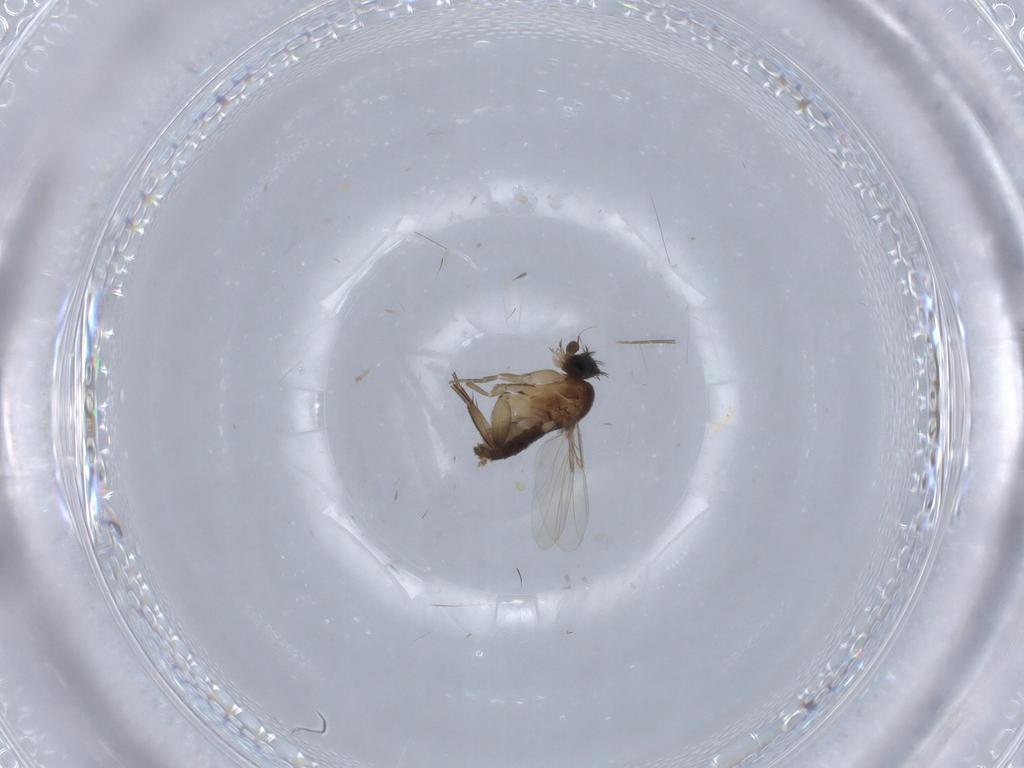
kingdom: Animalia
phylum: Arthropoda
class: Insecta
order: Diptera
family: Phoridae
